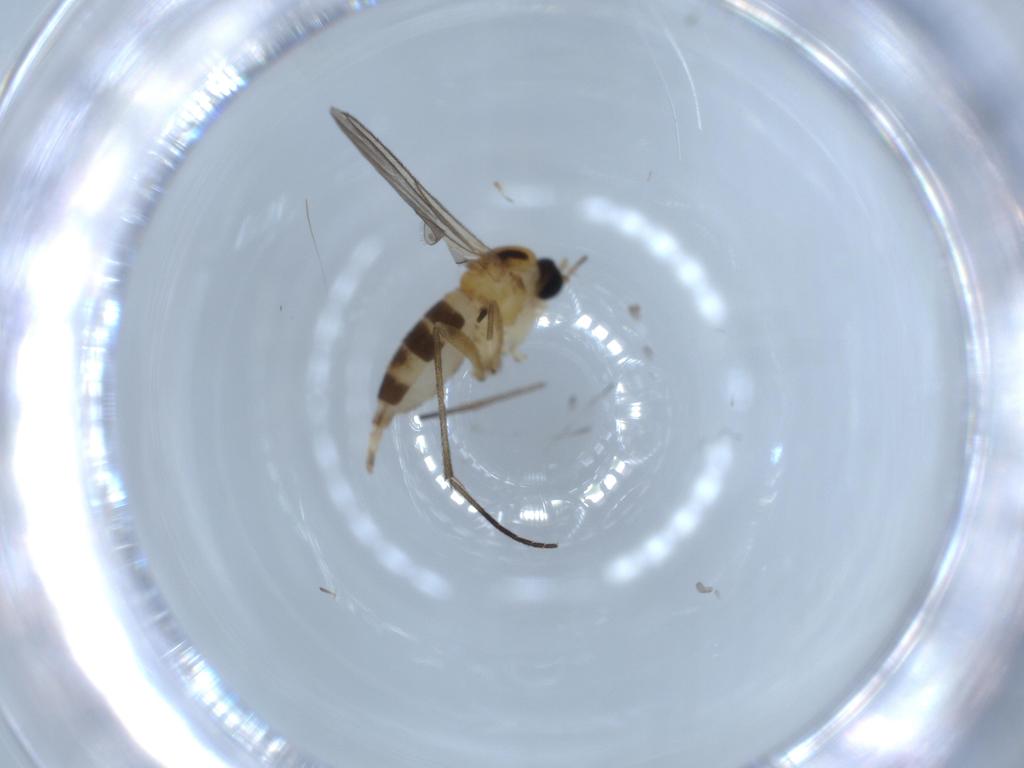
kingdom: Animalia
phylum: Arthropoda
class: Insecta
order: Diptera
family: Sciaridae
